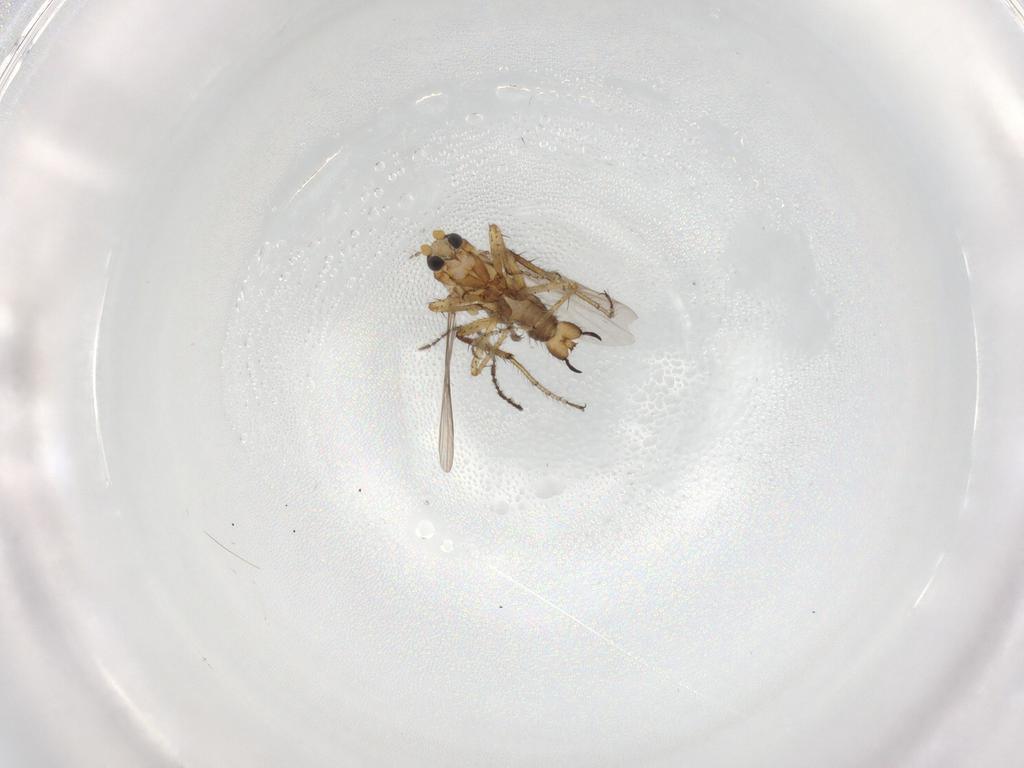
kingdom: Animalia
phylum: Arthropoda
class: Insecta
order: Diptera
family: Ceratopogonidae
